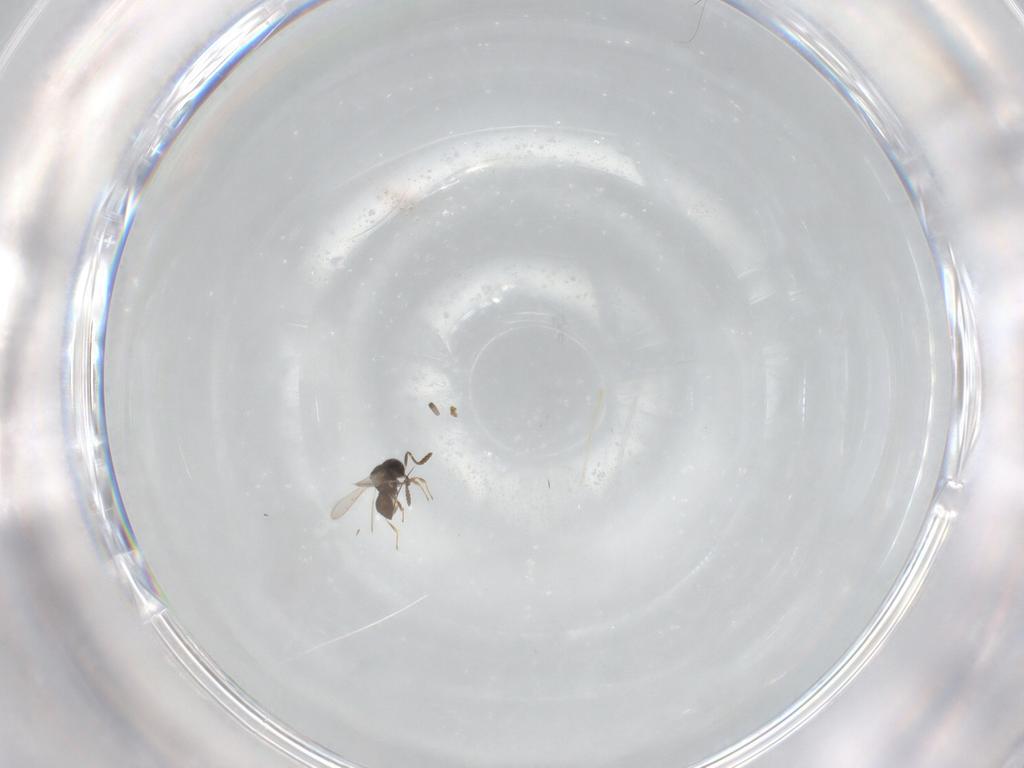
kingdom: Animalia
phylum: Arthropoda
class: Insecta
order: Hymenoptera
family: Scelionidae
